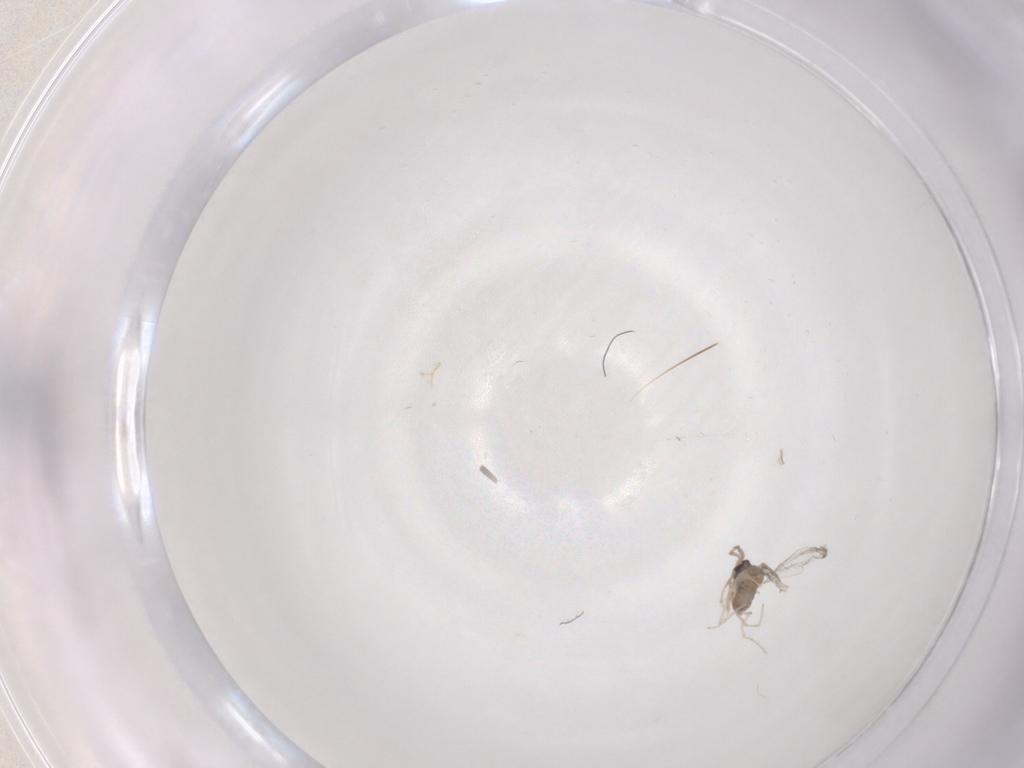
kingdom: Animalia
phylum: Arthropoda
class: Insecta
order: Diptera
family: Cecidomyiidae
